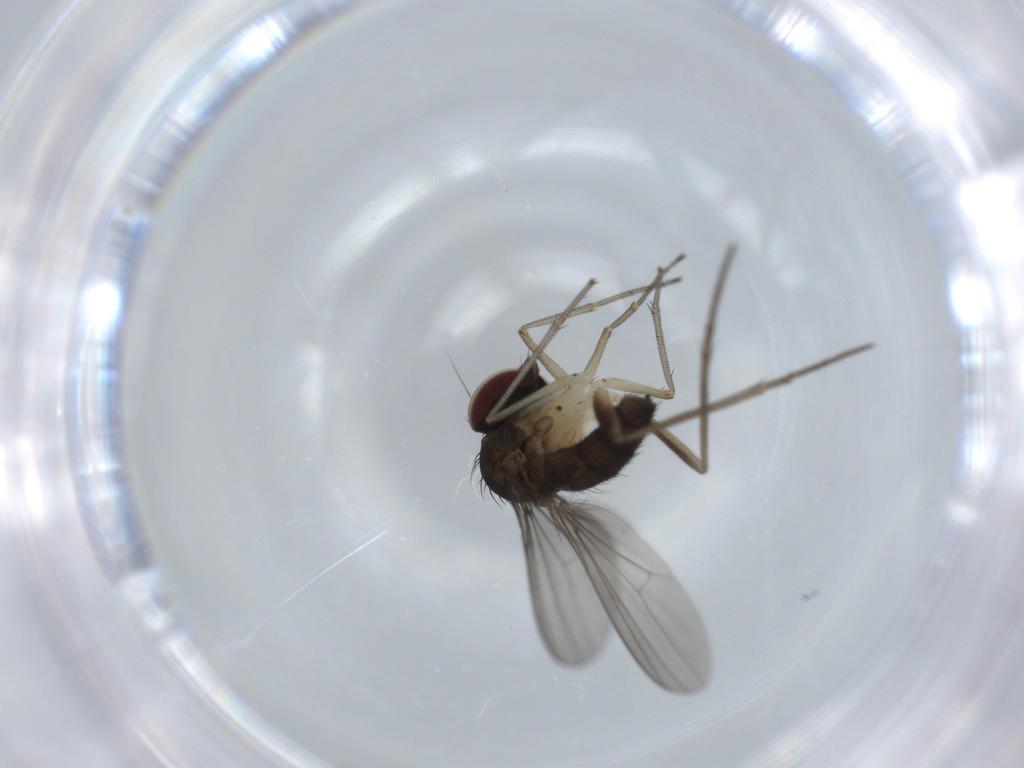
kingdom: Animalia
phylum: Arthropoda
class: Insecta
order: Diptera
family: Dolichopodidae
